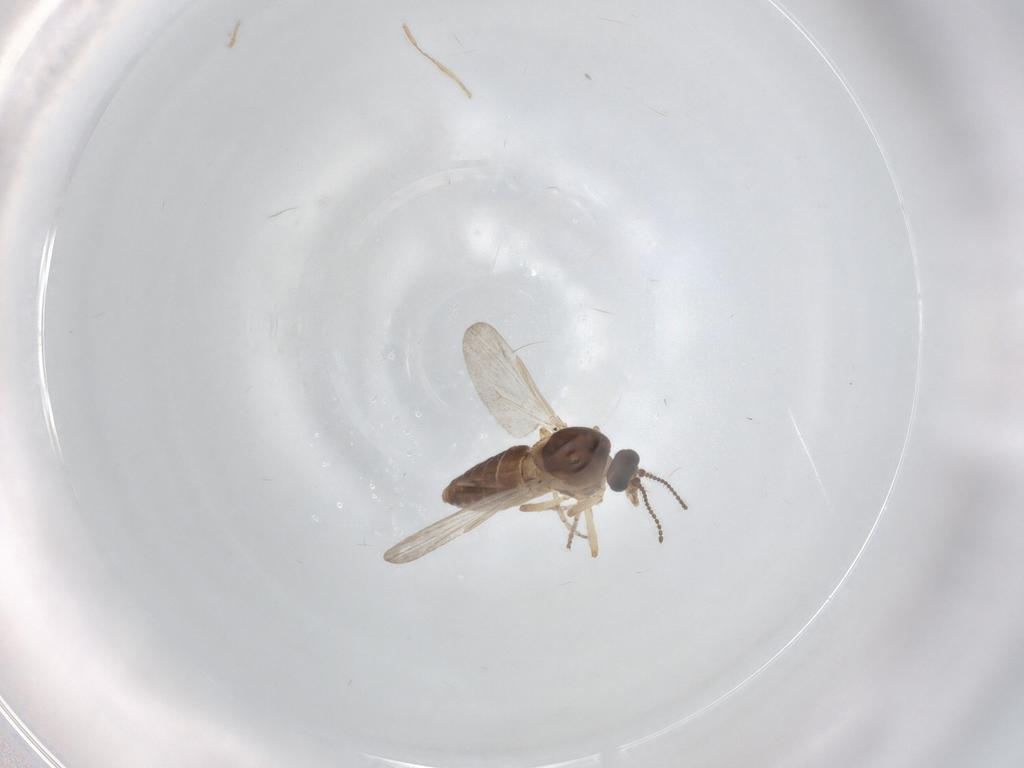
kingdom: Animalia
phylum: Arthropoda
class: Insecta
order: Diptera
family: Ceratopogonidae
